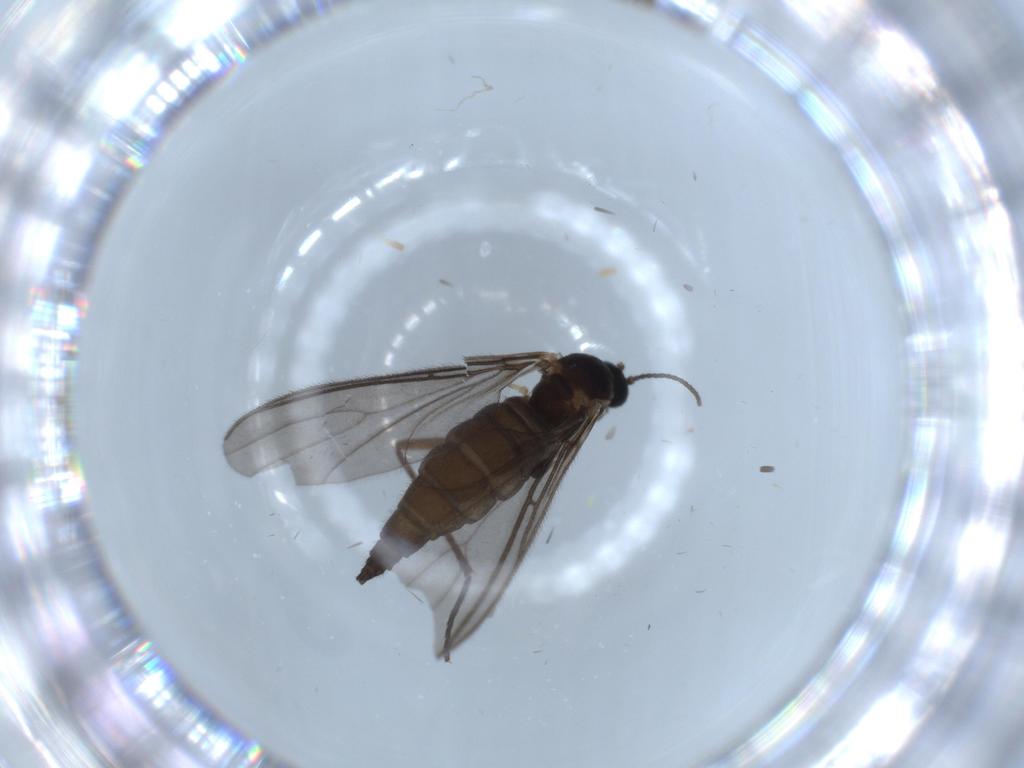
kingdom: Animalia
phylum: Arthropoda
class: Insecta
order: Diptera
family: Sciaridae
